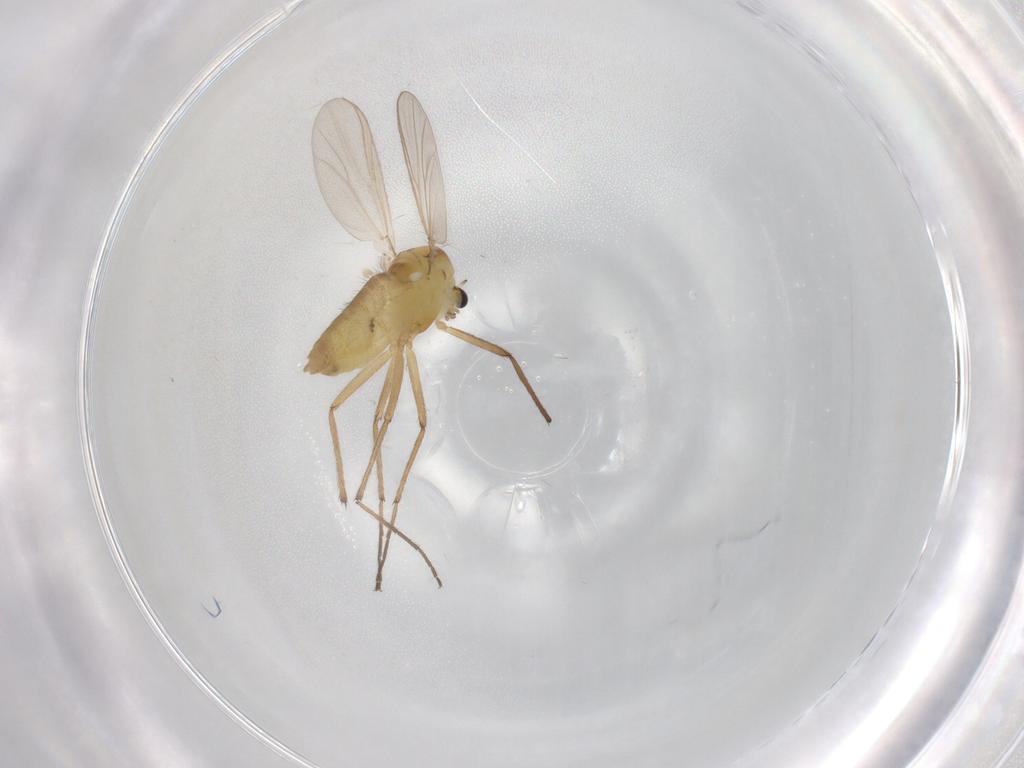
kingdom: Animalia
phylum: Arthropoda
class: Insecta
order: Diptera
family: Chironomidae
